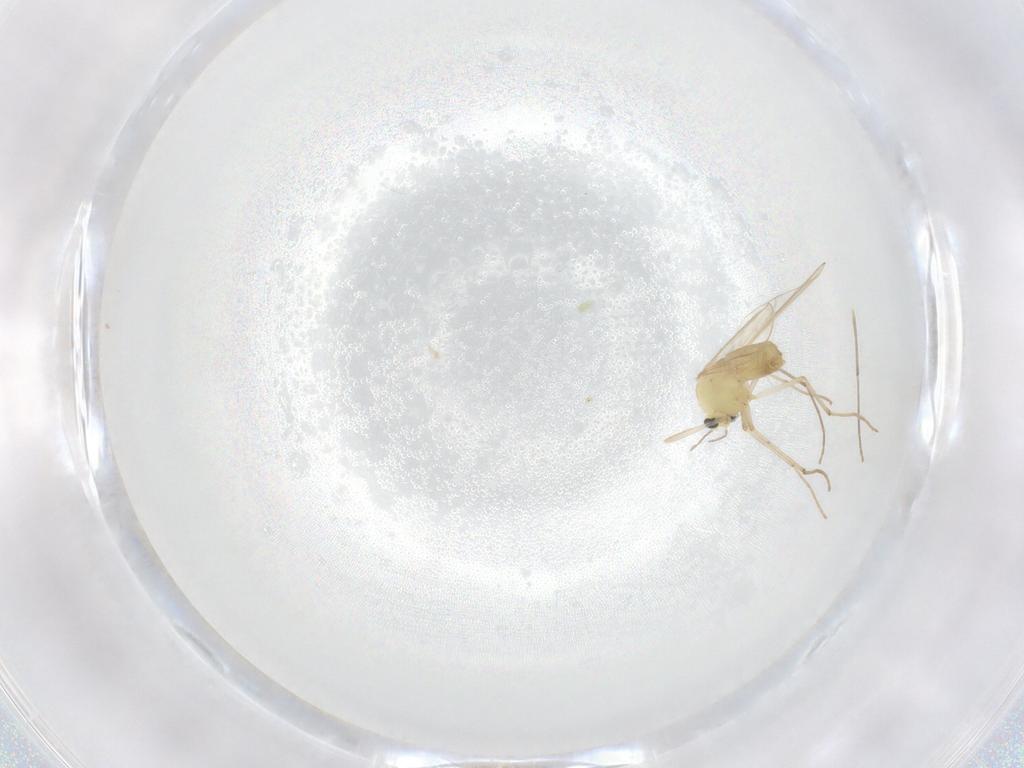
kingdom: Animalia
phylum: Arthropoda
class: Insecta
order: Diptera
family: Chironomidae
